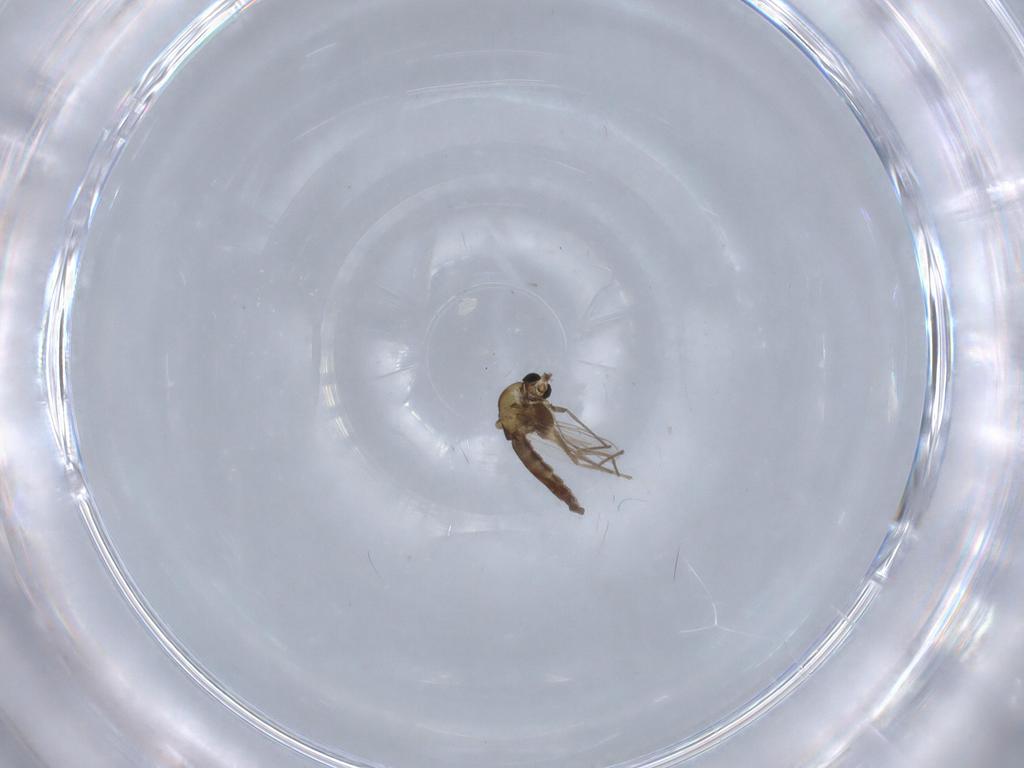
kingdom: Animalia
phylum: Arthropoda
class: Insecta
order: Diptera
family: Chironomidae
